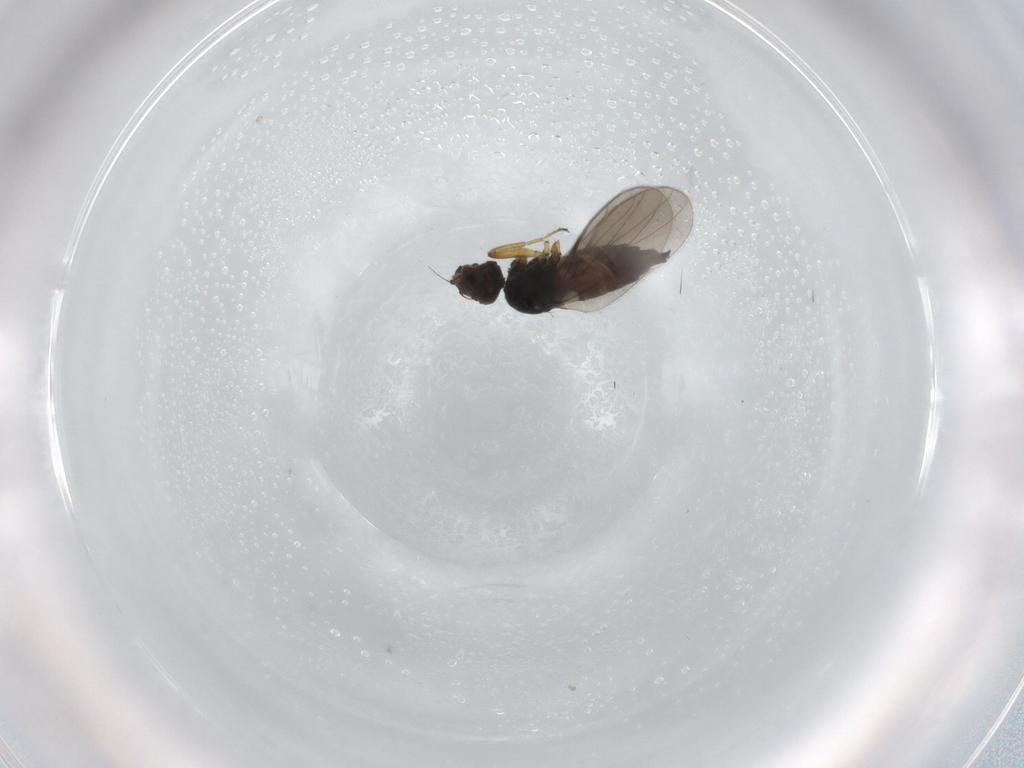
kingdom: Animalia
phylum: Arthropoda
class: Insecta
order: Diptera
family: Hybotidae
